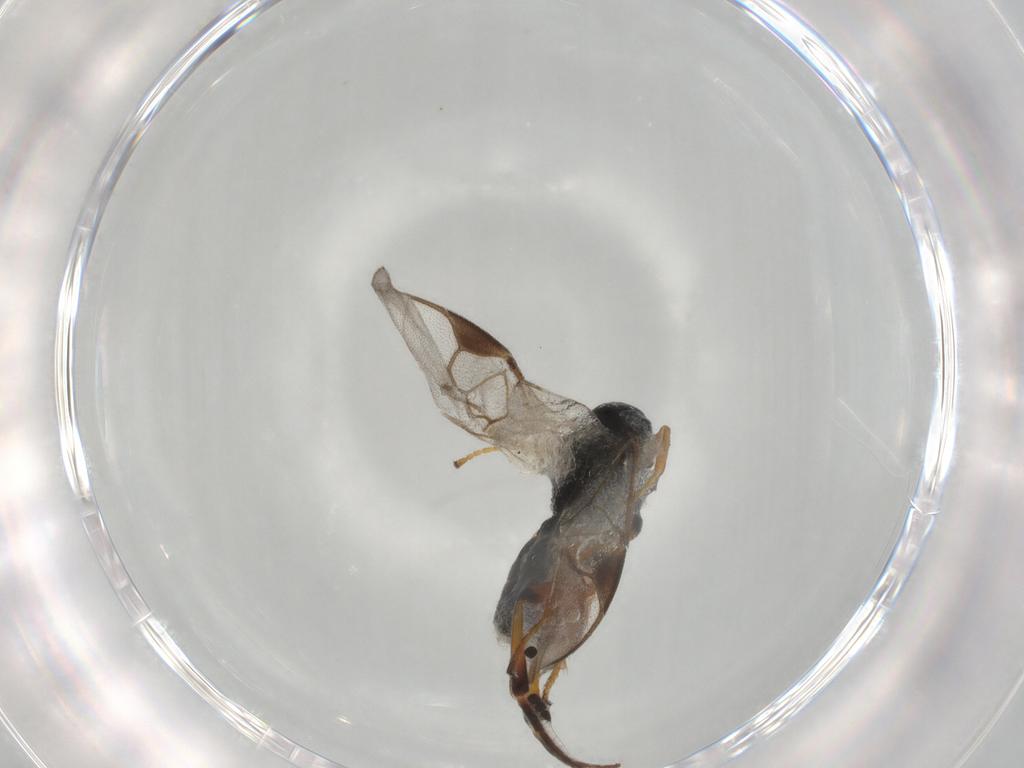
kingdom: Animalia
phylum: Arthropoda
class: Insecta
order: Hymenoptera
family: Braconidae
